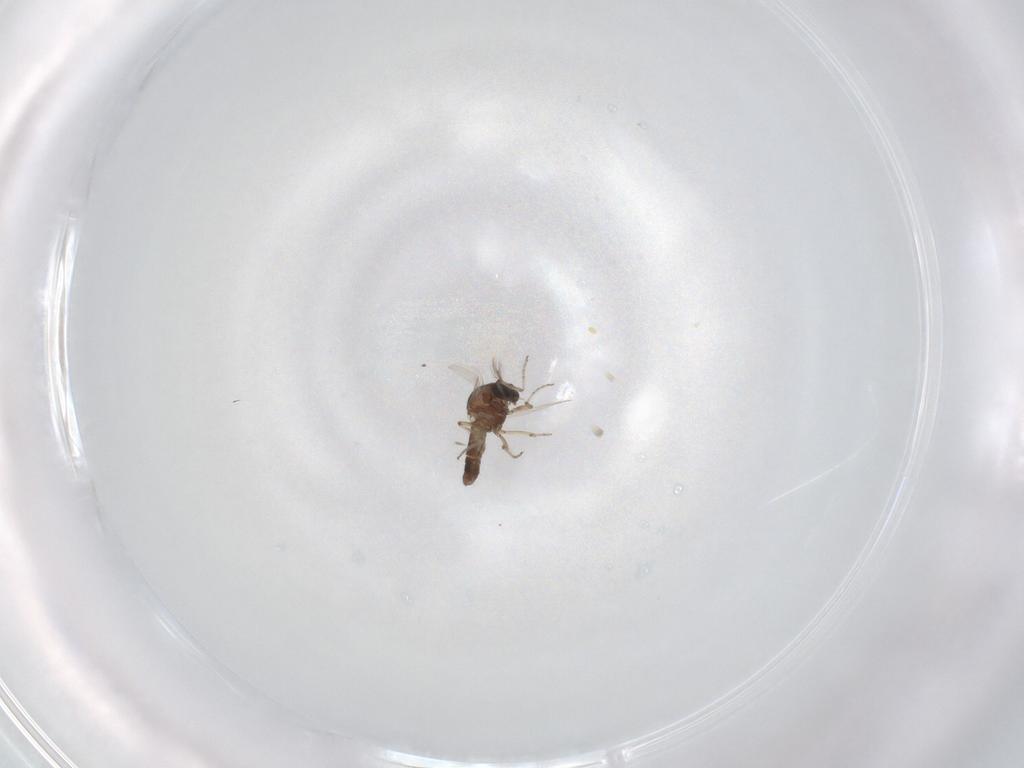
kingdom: Animalia
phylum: Arthropoda
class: Insecta
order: Diptera
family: Ceratopogonidae
